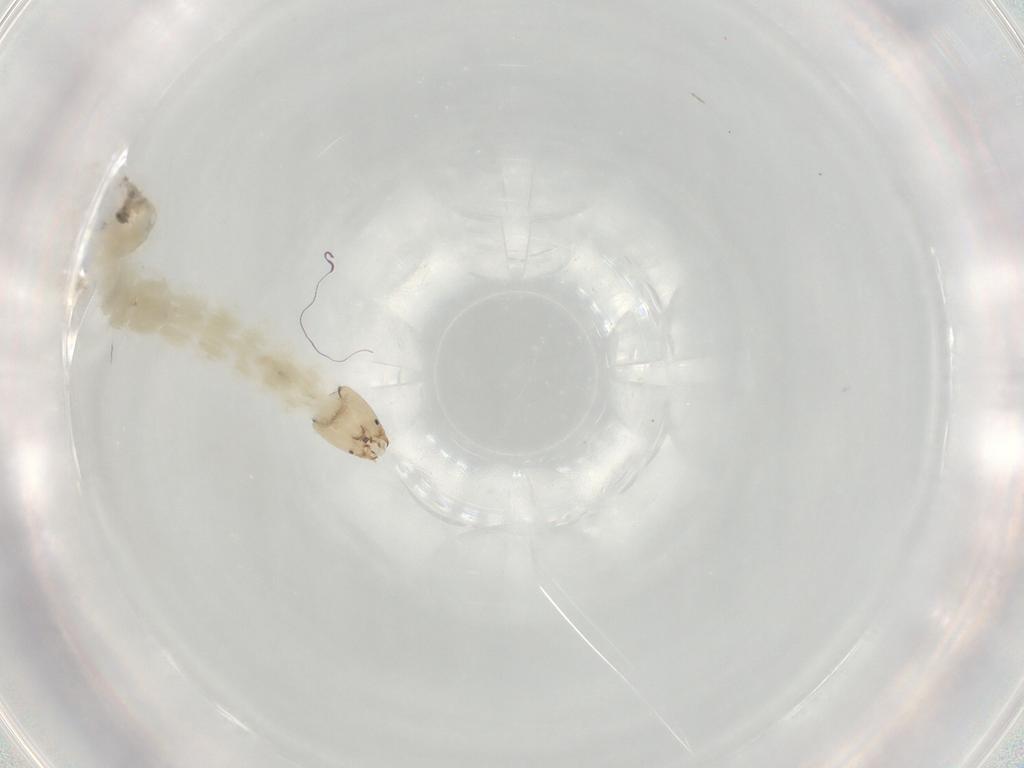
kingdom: Animalia
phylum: Arthropoda
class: Insecta
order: Diptera
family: Chironomidae
